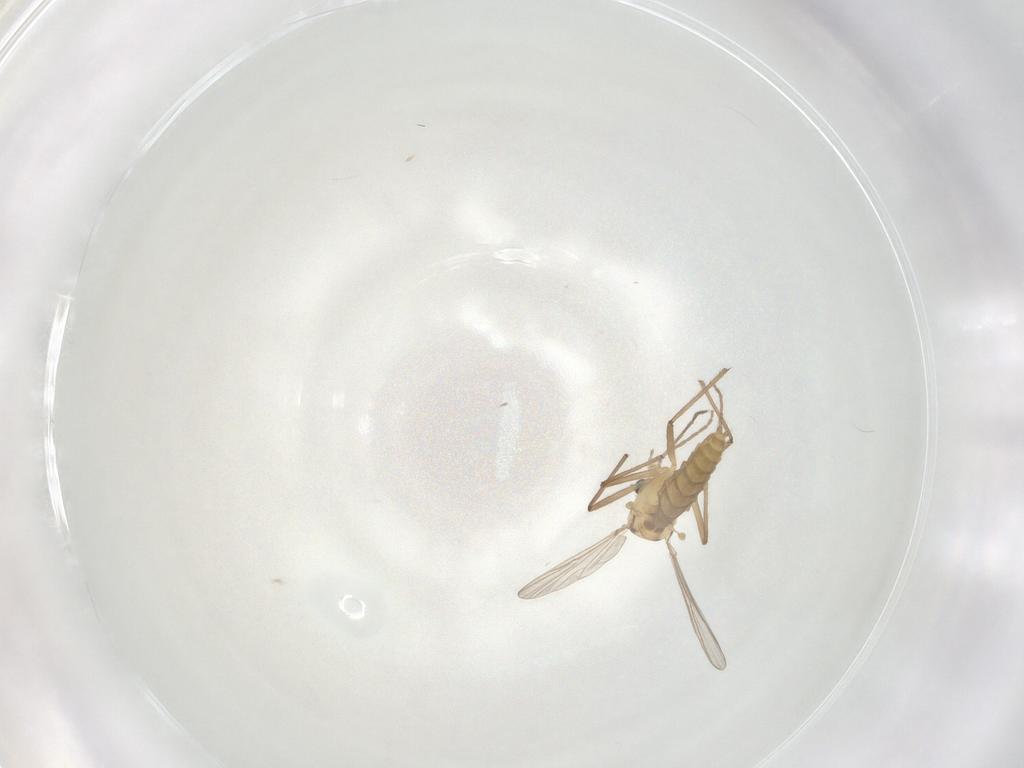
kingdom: Animalia
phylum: Arthropoda
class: Insecta
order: Diptera
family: Chironomidae
